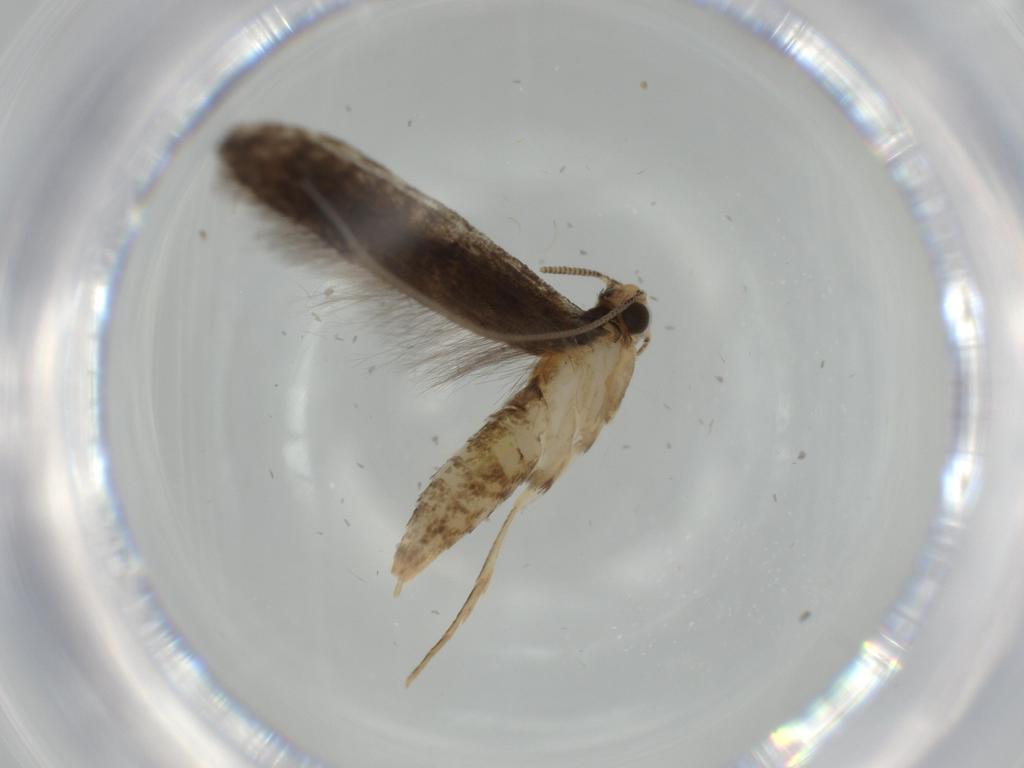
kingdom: Animalia
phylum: Arthropoda
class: Insecta
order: Lepidoptera
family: Tineidae
